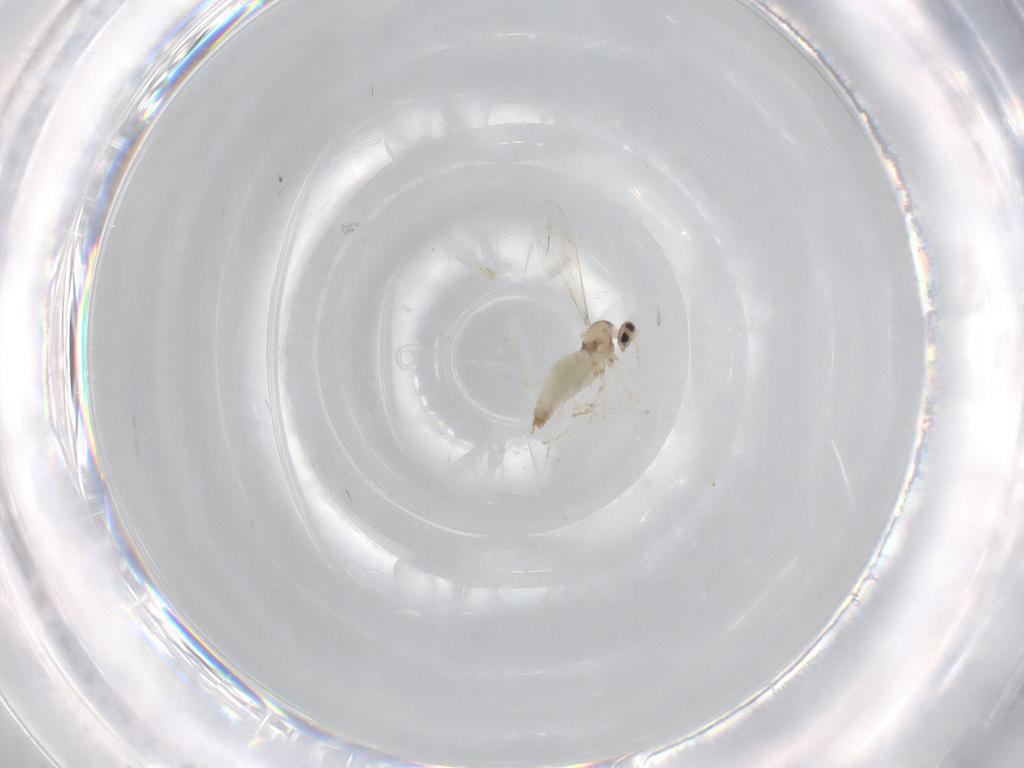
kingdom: Animalia
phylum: Arthropoda
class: Insecta
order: Diptera
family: Cecidomyiidae
